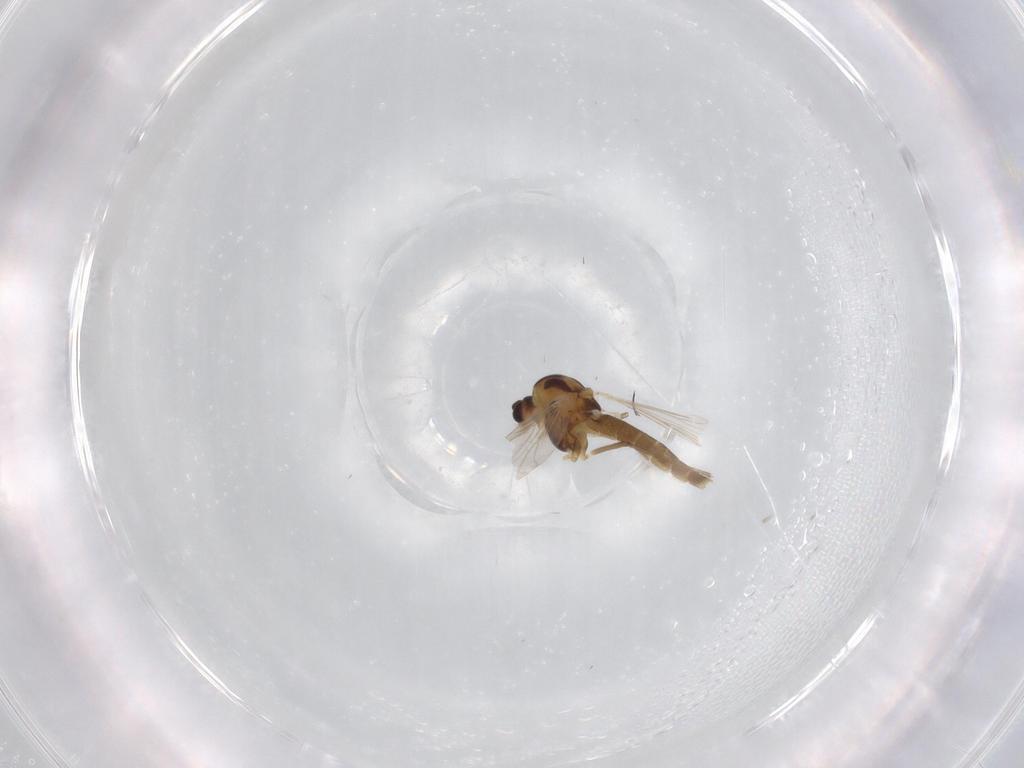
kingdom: Animalia
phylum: Arthropoda
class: Insecta
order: Diptera
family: Chironomidae
